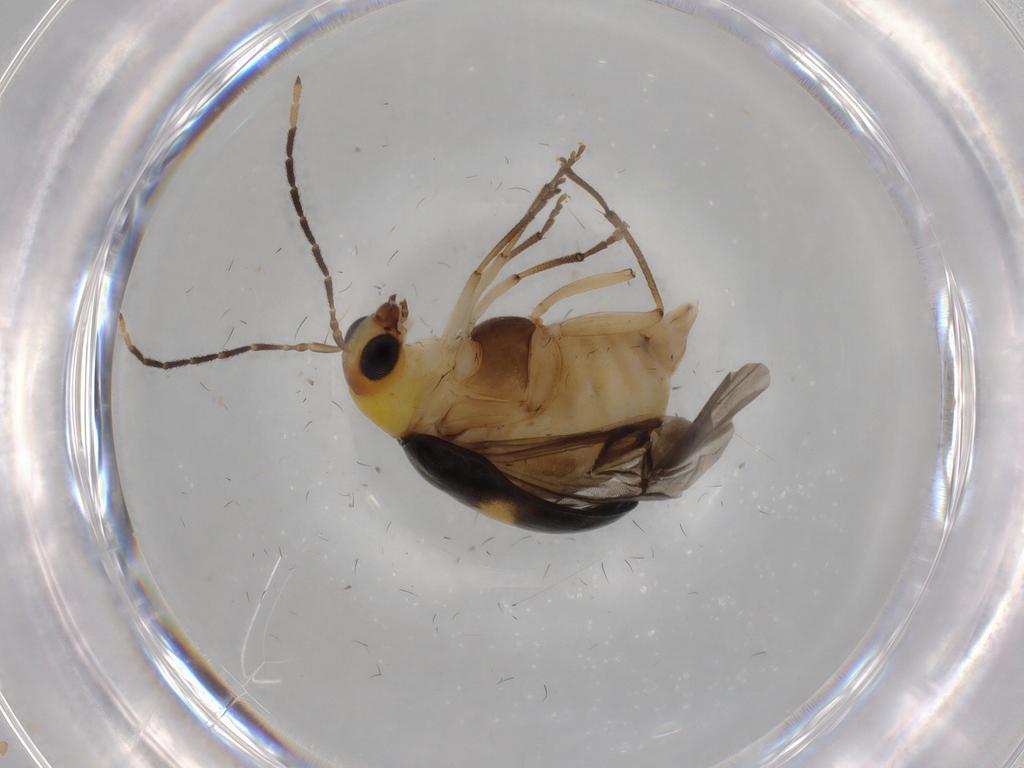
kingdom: Animalia
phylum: Arthropoda
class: Insecta
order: Coleoptera
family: Chrysomelidae
